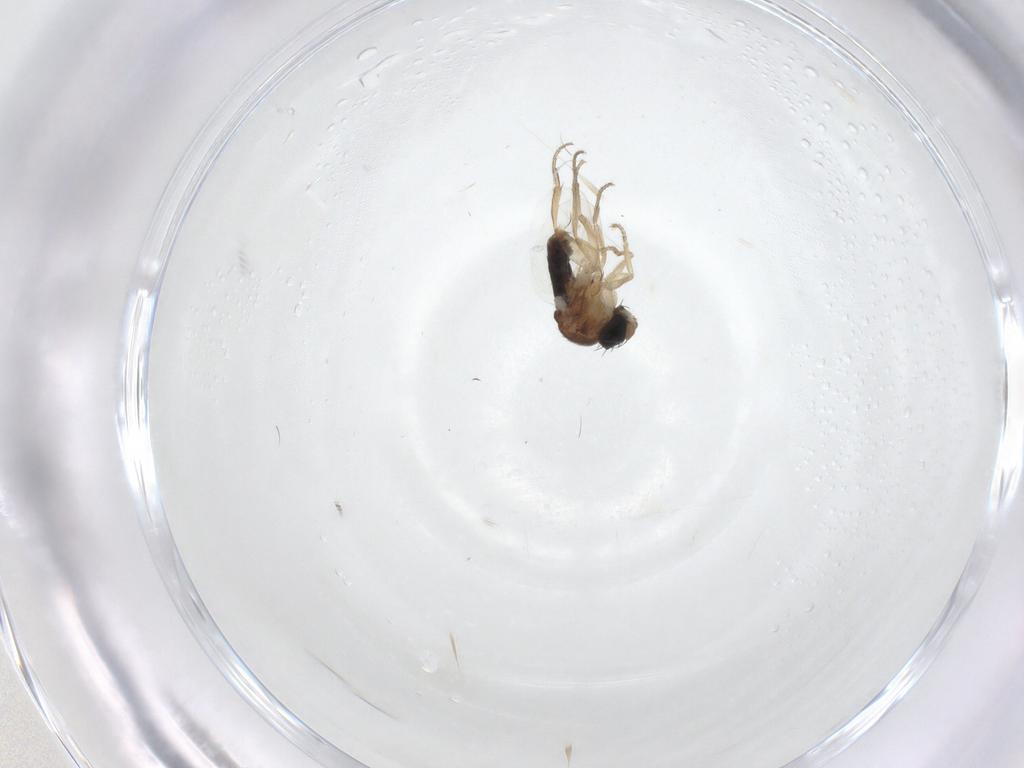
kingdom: Animalia
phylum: Arthropoda
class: Insecta
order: Diptera
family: Phoridae
